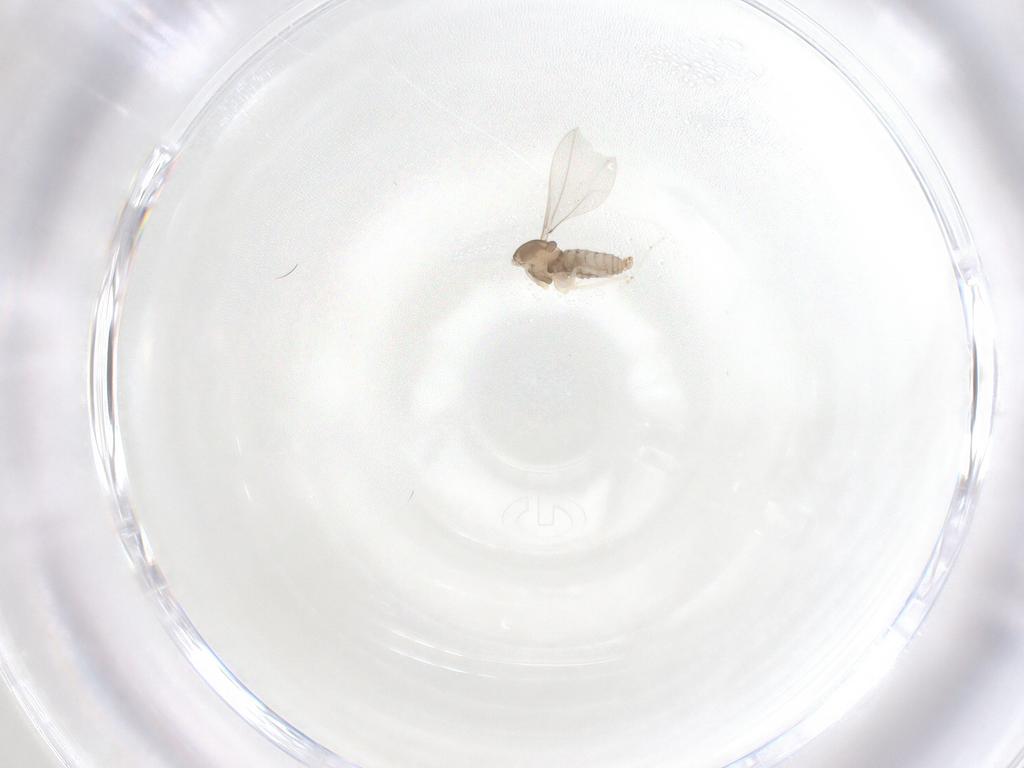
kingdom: Animalia
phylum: Arthropoda
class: Insecta
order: Diptera
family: Cecidomyiidae
